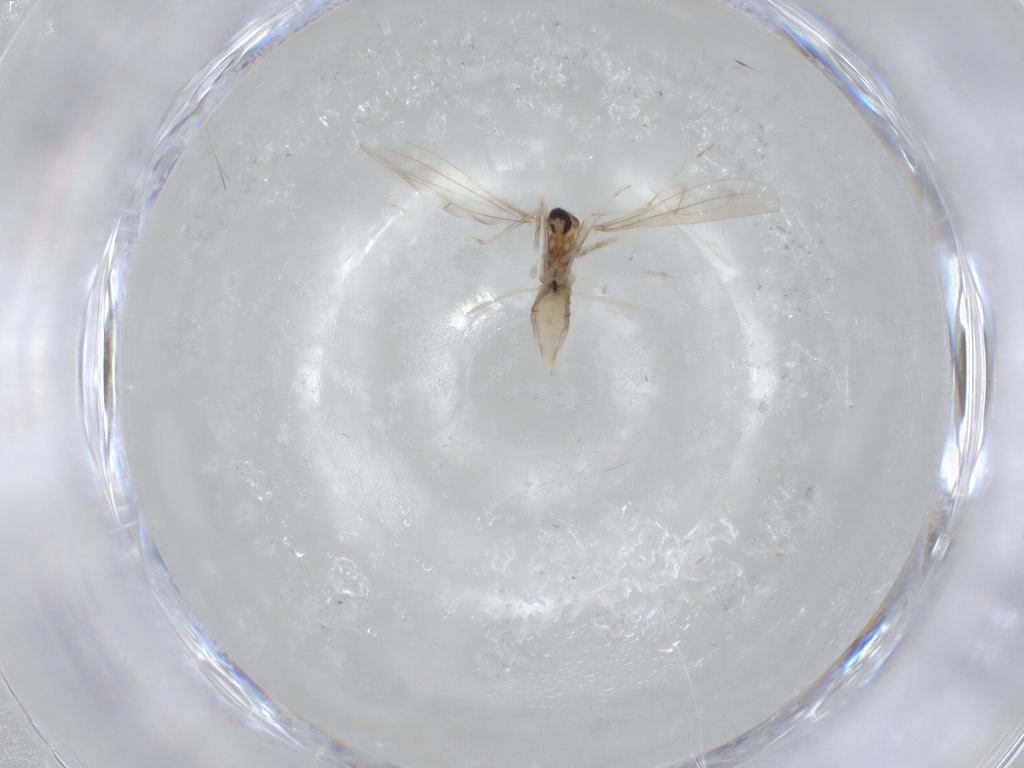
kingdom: Animalia
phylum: Arthropoda
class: Insecta
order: Diptera
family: Cecidomyiidae
